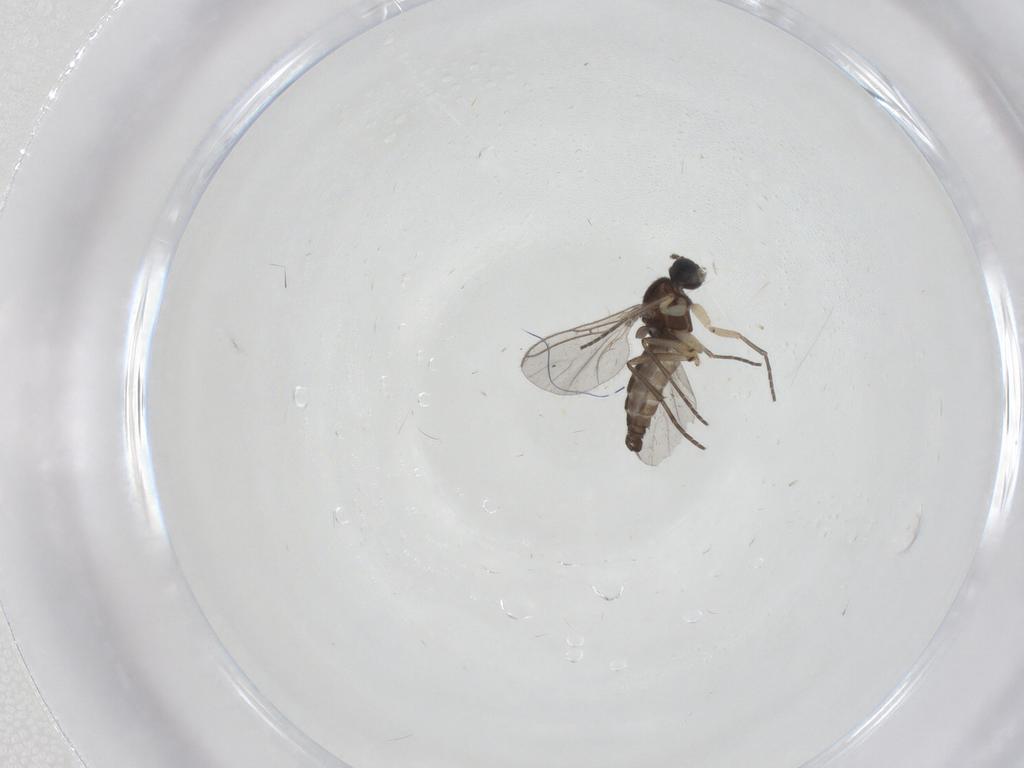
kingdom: Animalia
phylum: Arthropoda
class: Insecta
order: Diptera
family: Sciaridae
